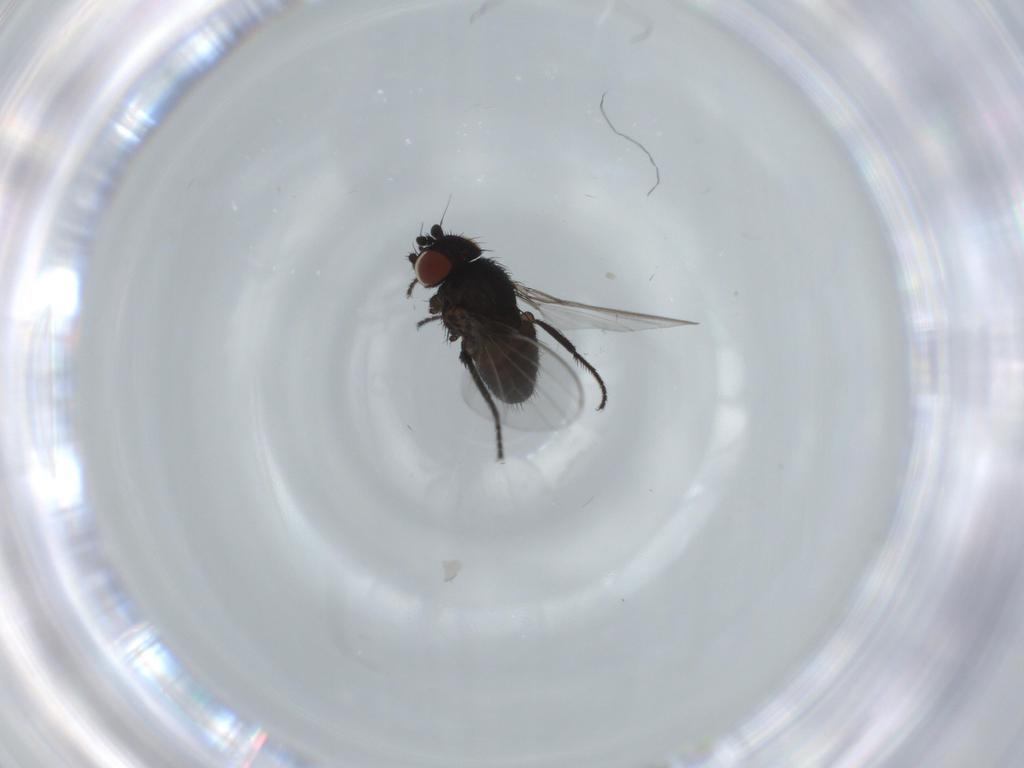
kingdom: Animalia
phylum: Arthropoda
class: Insecta
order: Diptera
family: Milichiidae
